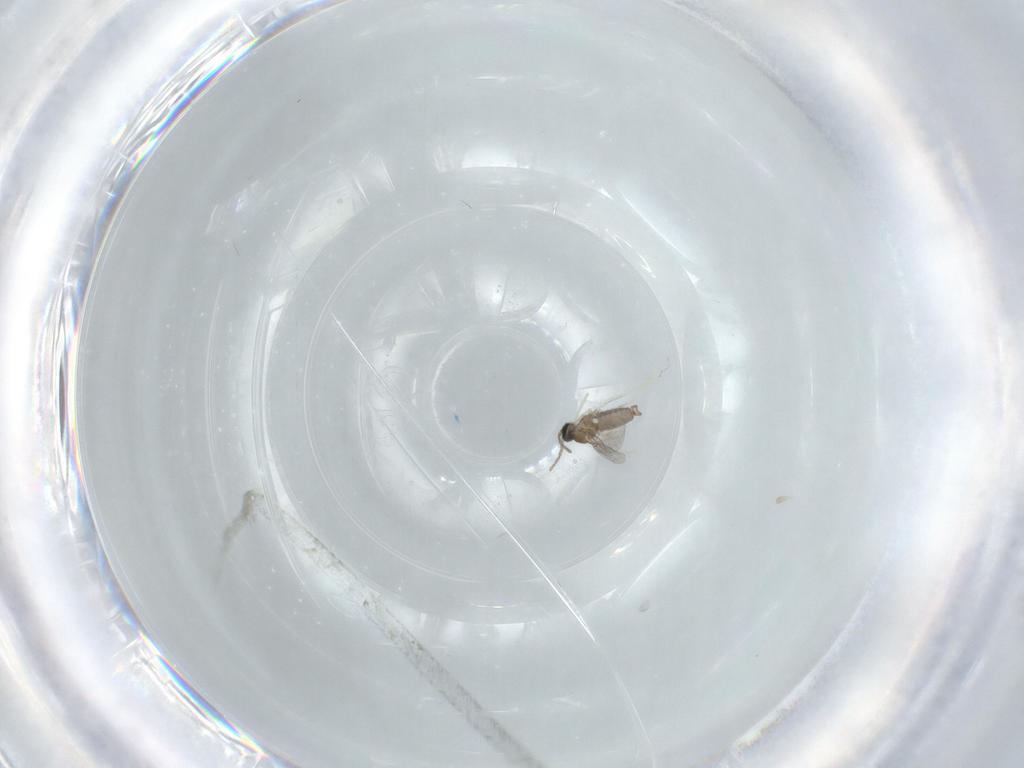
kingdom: Animalia
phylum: Arthropoda
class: Insecta
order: Diptera
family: Cecidomyiidae
